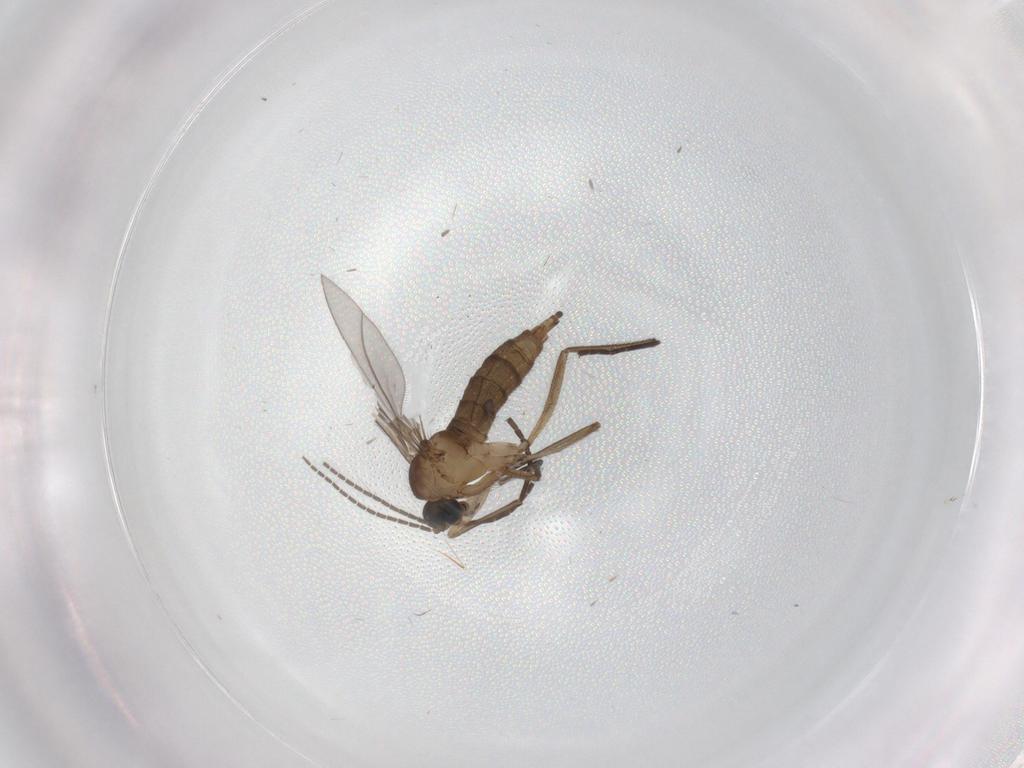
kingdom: Animalia
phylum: Arthropoda
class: Insecta
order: Diptera
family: Sciaridae
